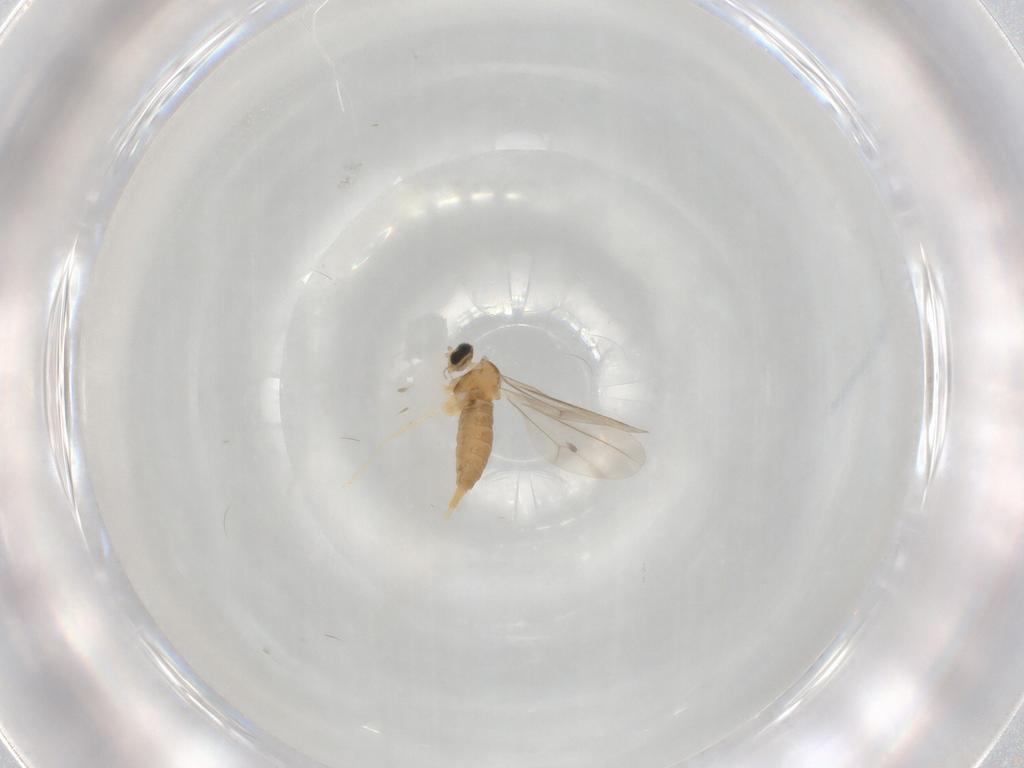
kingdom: Animalia
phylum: Arthropoda
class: Insecta
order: Diptera
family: Cecidomyiidae
